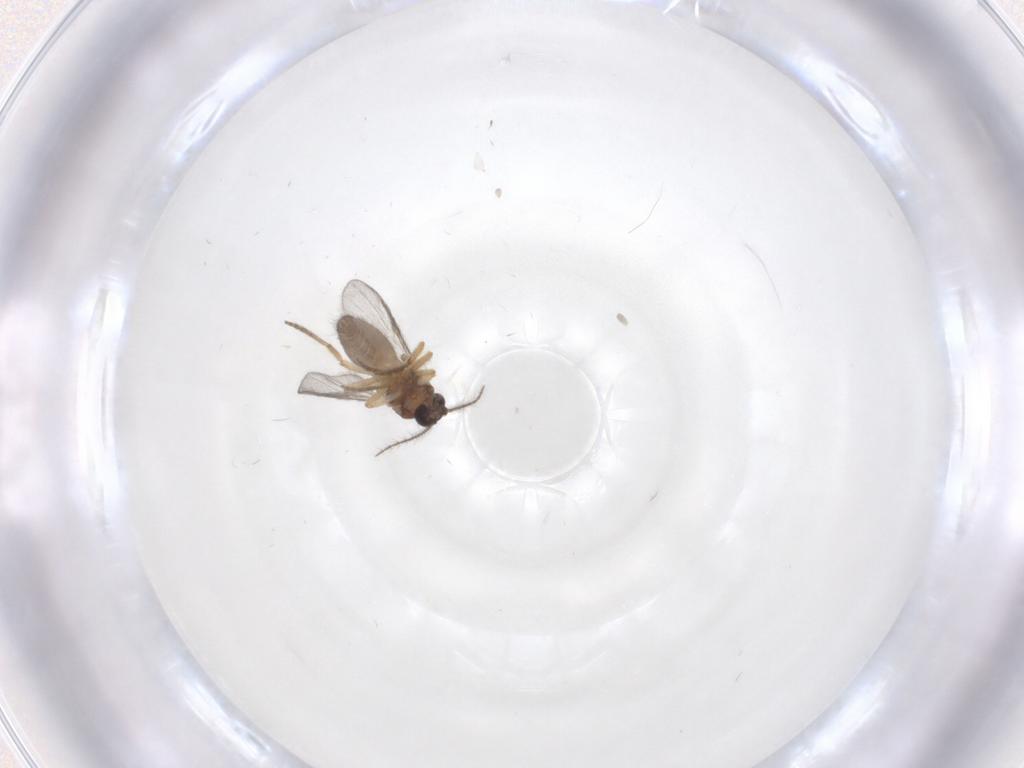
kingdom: Animalia
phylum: Arthropoda
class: Insecta
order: Diptera
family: Ceratopogonidae
